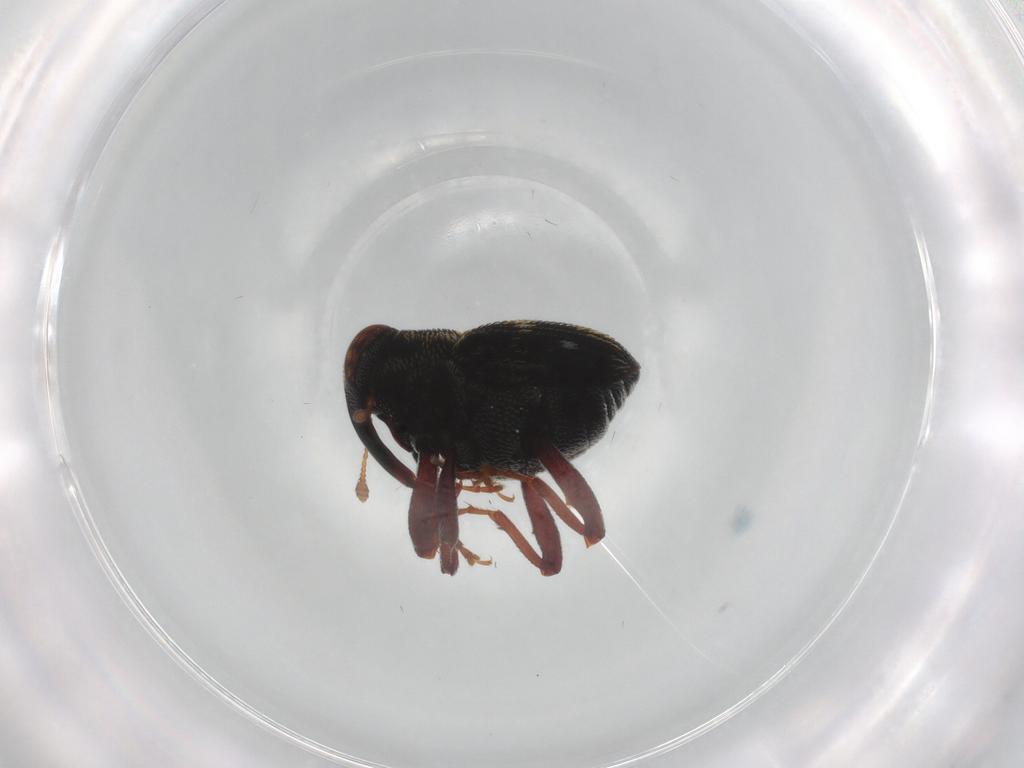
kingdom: Animalia
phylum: Arthropoda
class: Insecta
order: Coleoptera
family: Curculionidae
